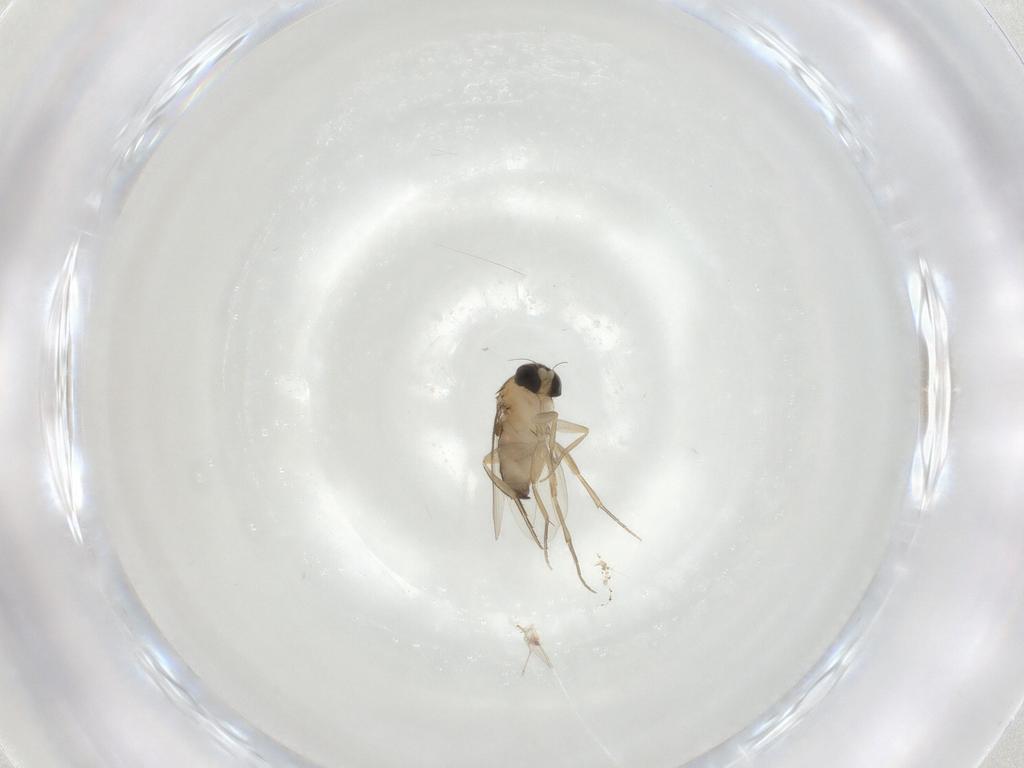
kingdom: Animalia
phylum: Arthropoda
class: Insecta
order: Diptera
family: Phoridae
